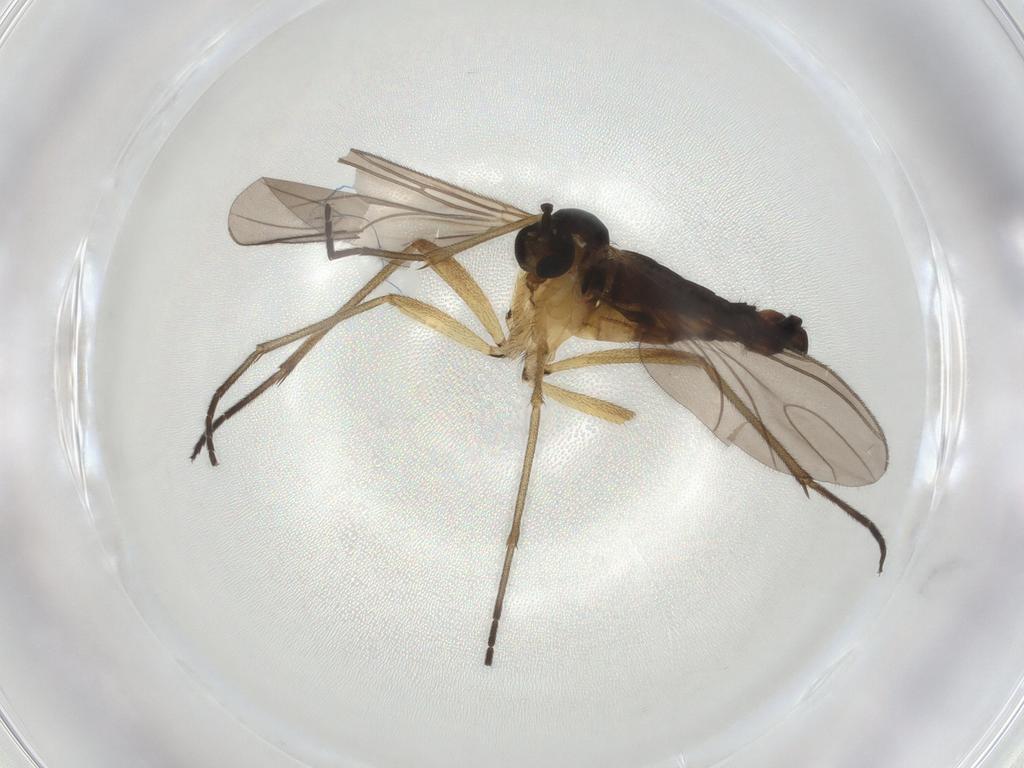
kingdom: Animalia
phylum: Arthropoda
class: Insecta
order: Diptera
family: Sciaridae
